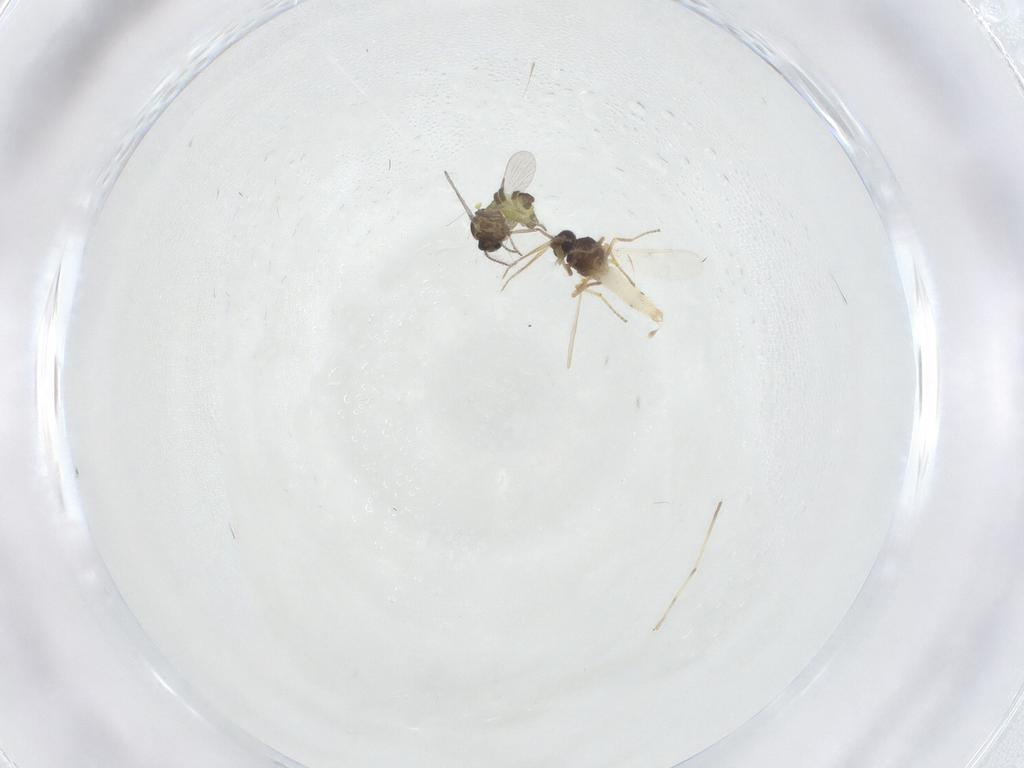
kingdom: Animalia
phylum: Arthropoda
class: Insecta
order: Diptera
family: Ceratopogonidae
